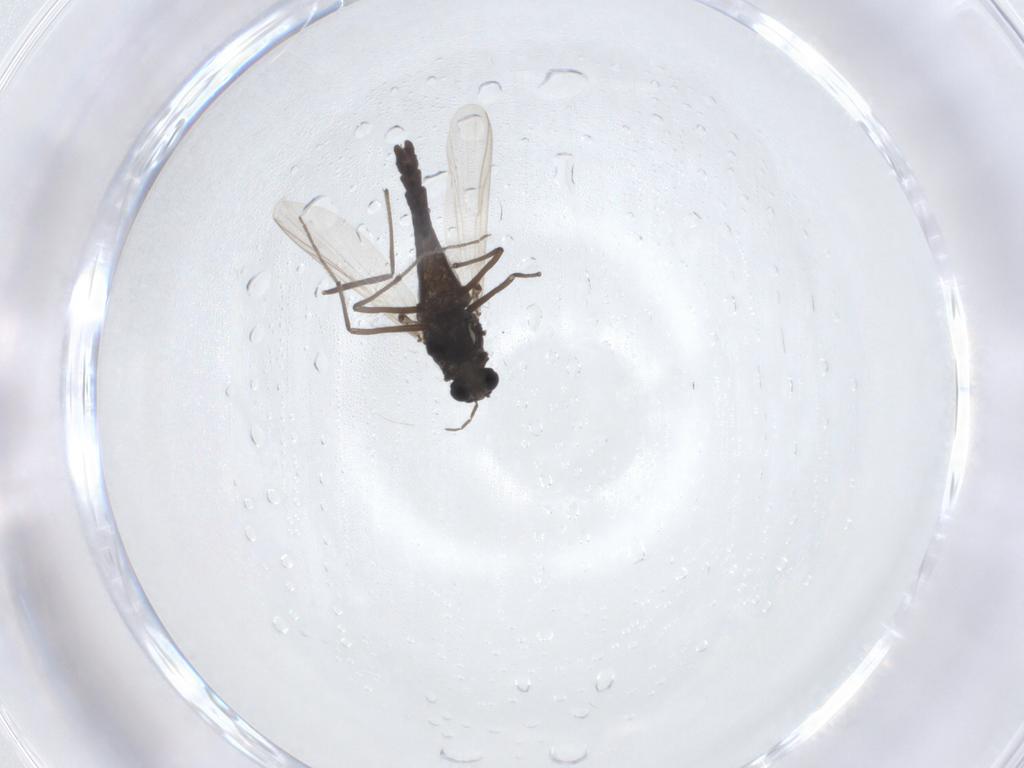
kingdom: Animalia
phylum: Arthropoda
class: Insecta
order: Diptera
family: Chironomidae
